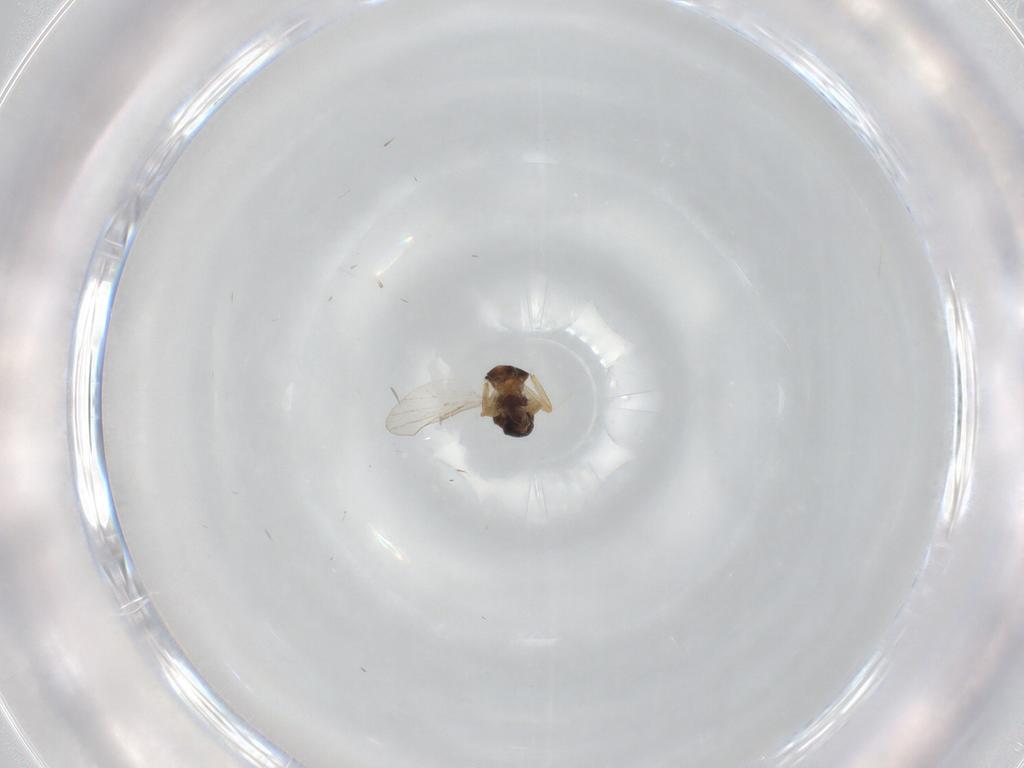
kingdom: Animalia
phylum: Arthropoda
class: Insecta
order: Diptera
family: Ceratopogonidae
